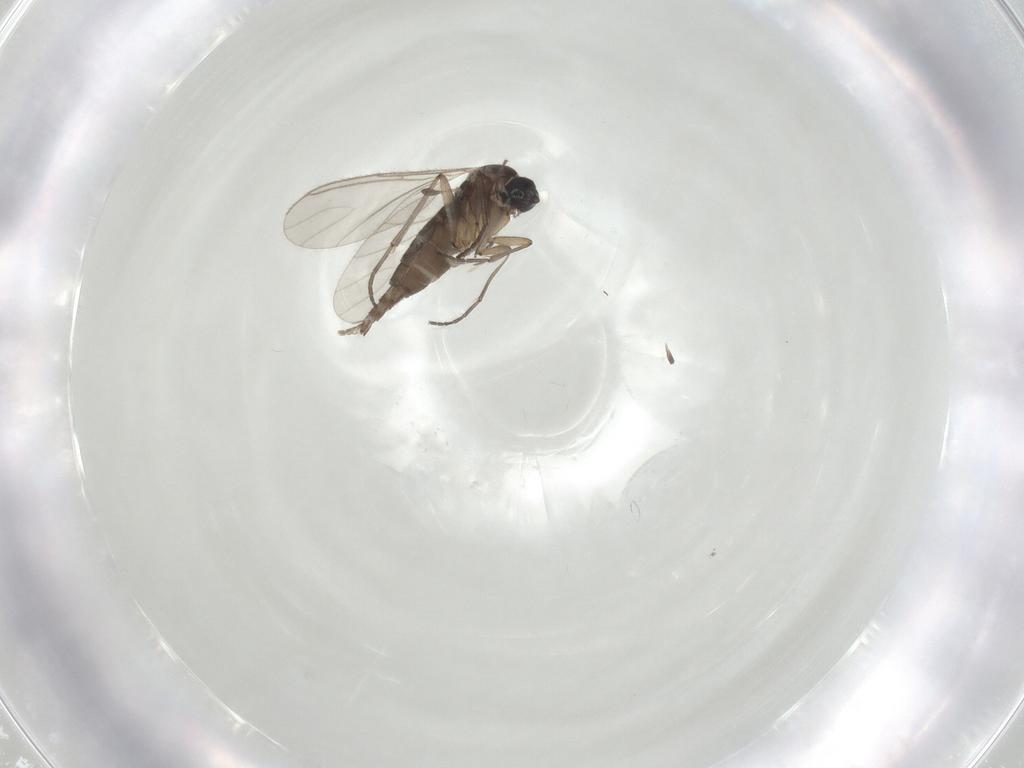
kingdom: Animalia
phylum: Arthropoda
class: Insecta
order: Diptera
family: Sciaridae
